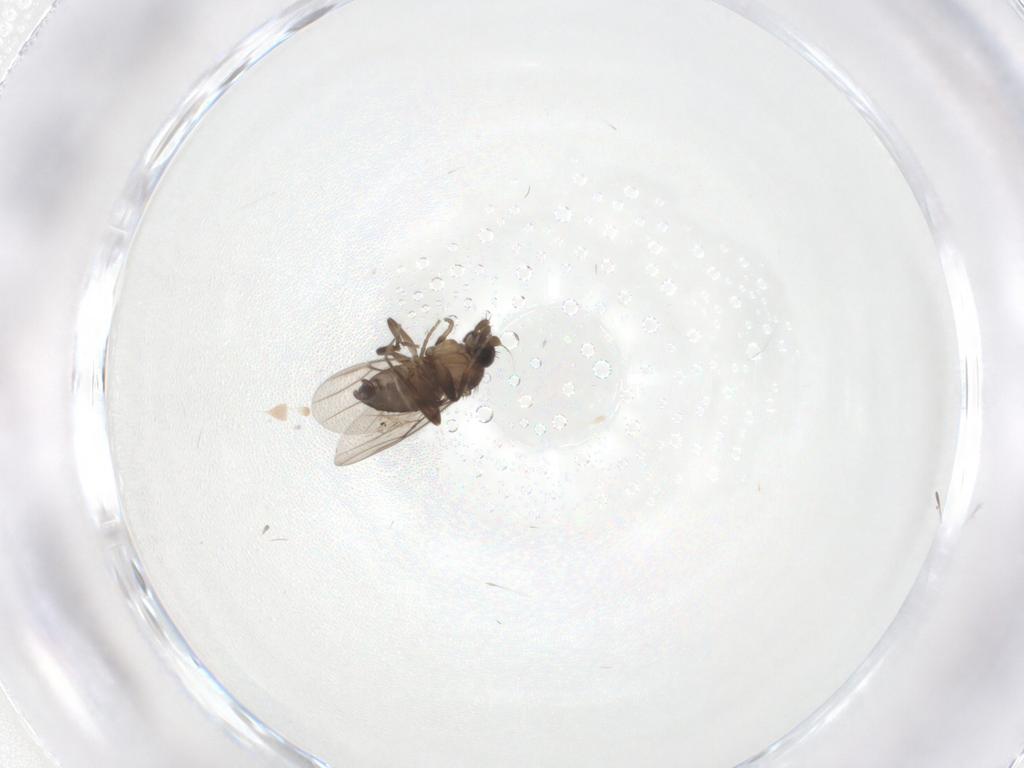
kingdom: Animalia
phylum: Arthropoda
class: Insecta
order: Diptera
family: Phoridae
